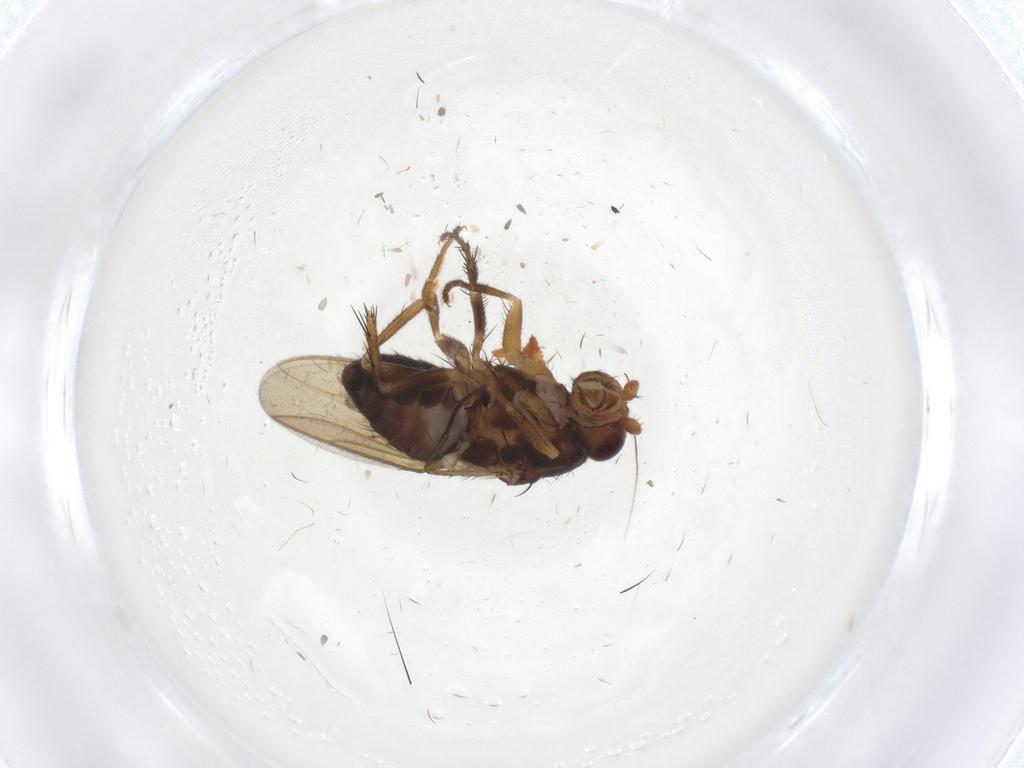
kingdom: Animalia
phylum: Arthropoda
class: Insecta
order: Diptera
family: Sphaeroceridae
